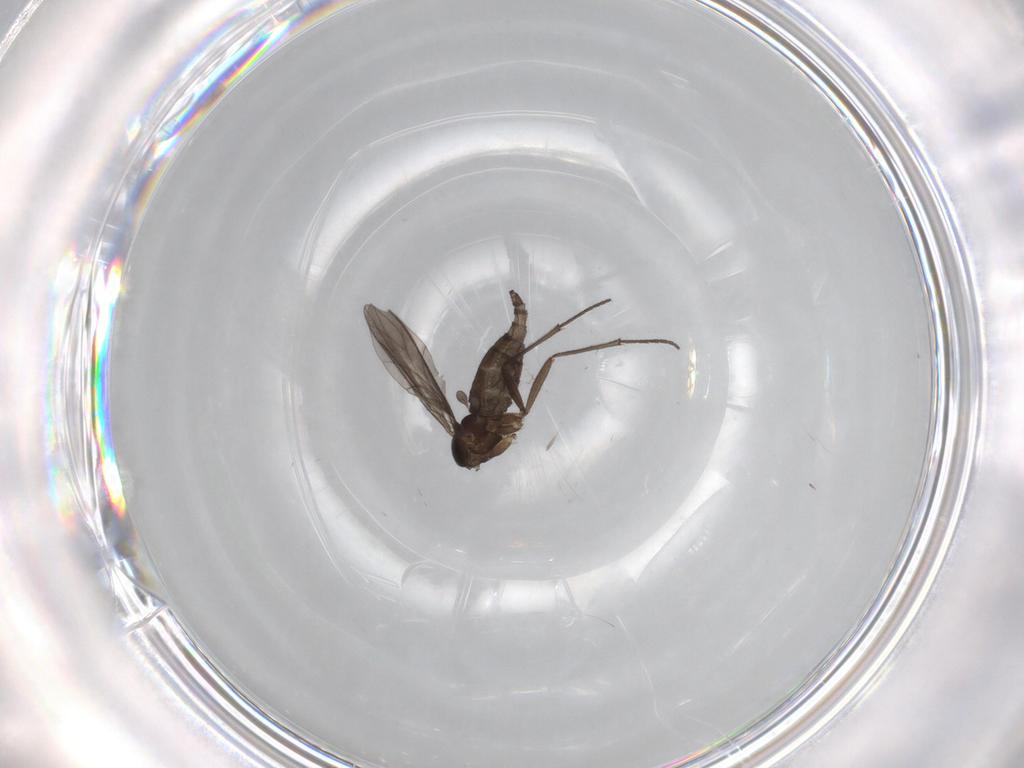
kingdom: Animalia
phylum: Arthropoda
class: Insecta
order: Diptera
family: Sciaridae
